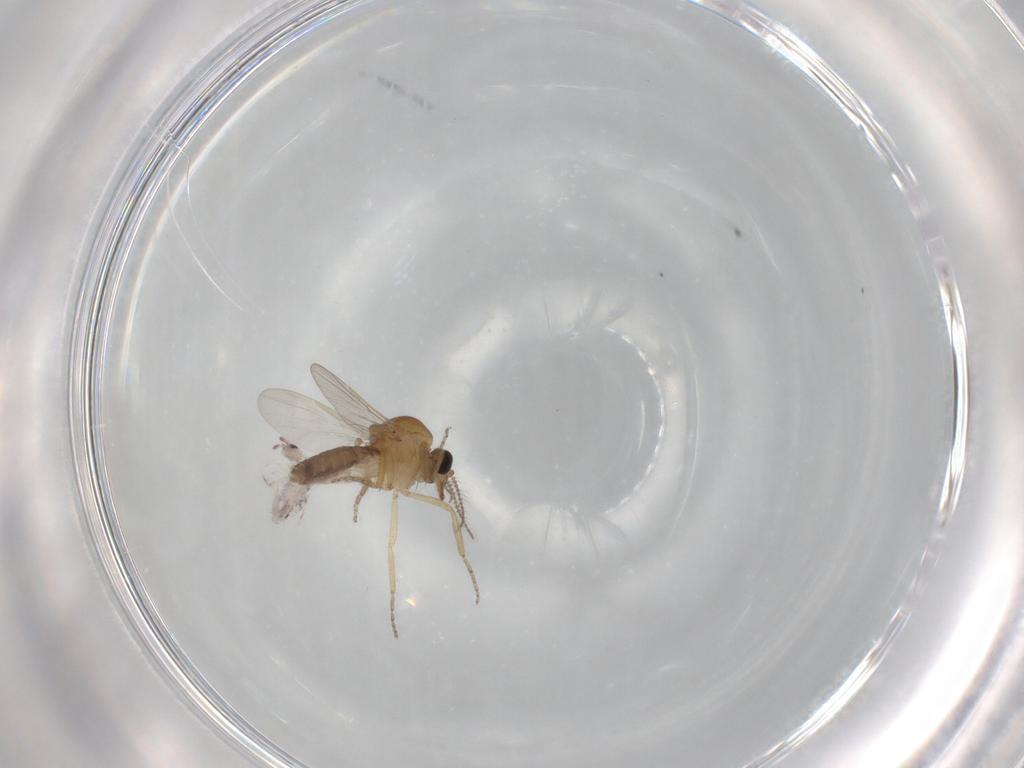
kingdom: Animalia
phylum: Arthropoda
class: Insecta
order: Diptera
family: Ceratopogonidae
